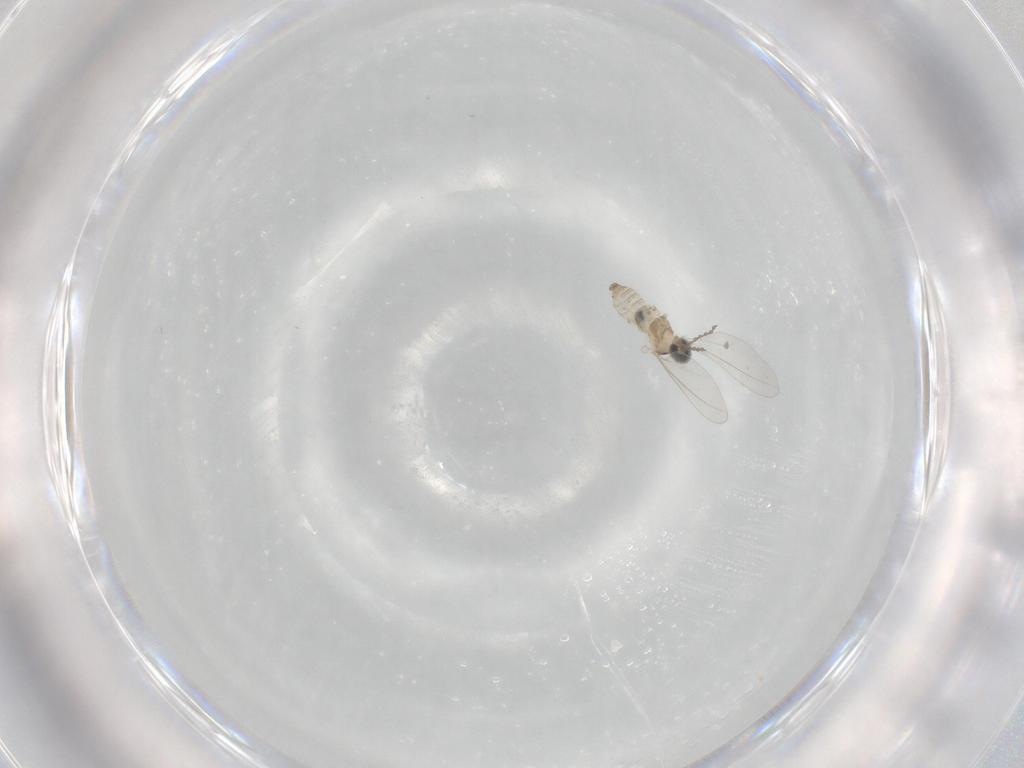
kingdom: Animalia
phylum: Arthropoda
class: Insecta
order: Diptera
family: Cecidomyiidae
